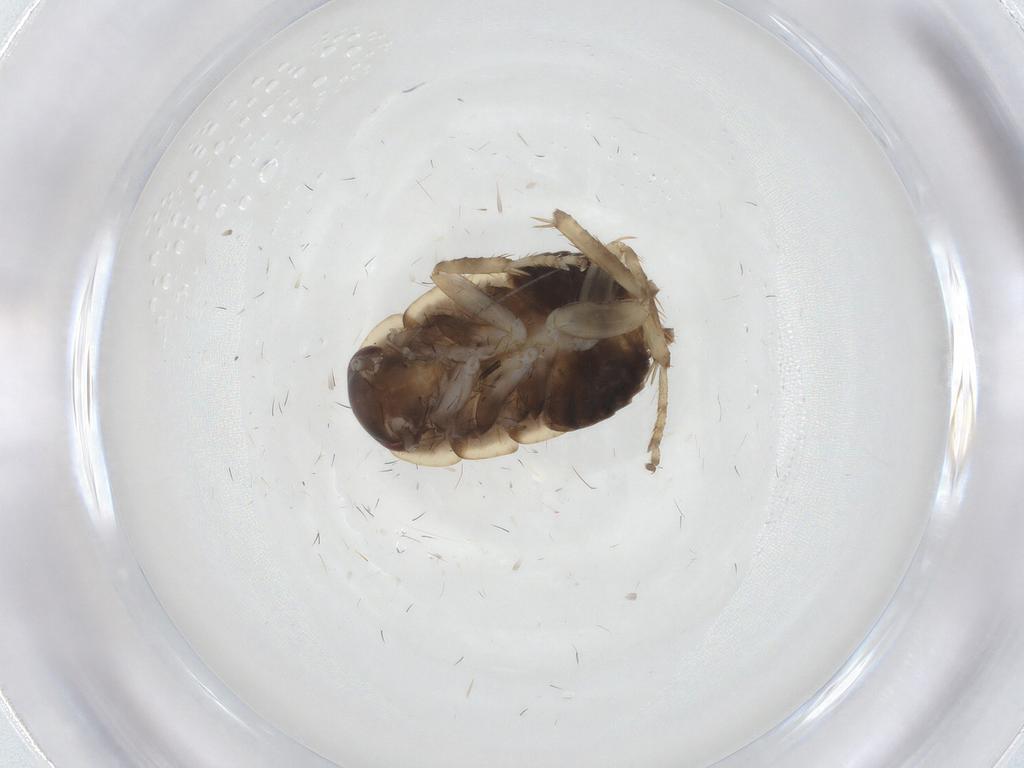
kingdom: Animalia
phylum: Arthropoda
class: Insecta
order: Blattodea
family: Ectobiidae
